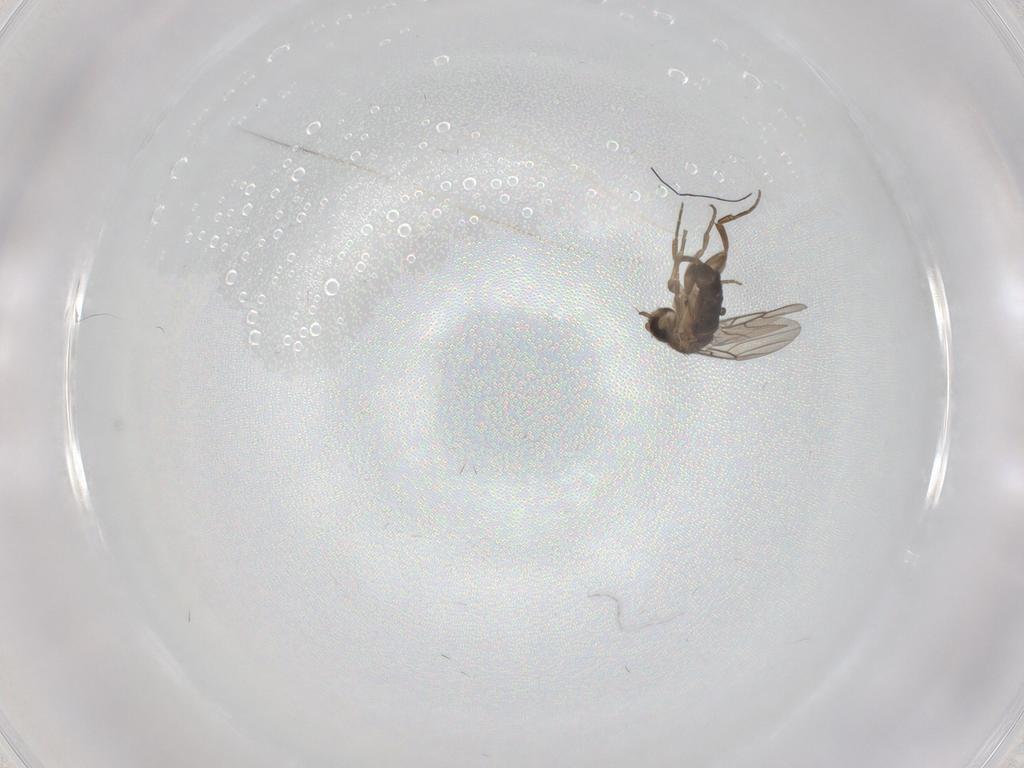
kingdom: Animalia
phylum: Arthropoda
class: Insecta
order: Diptera
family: Phoridae
